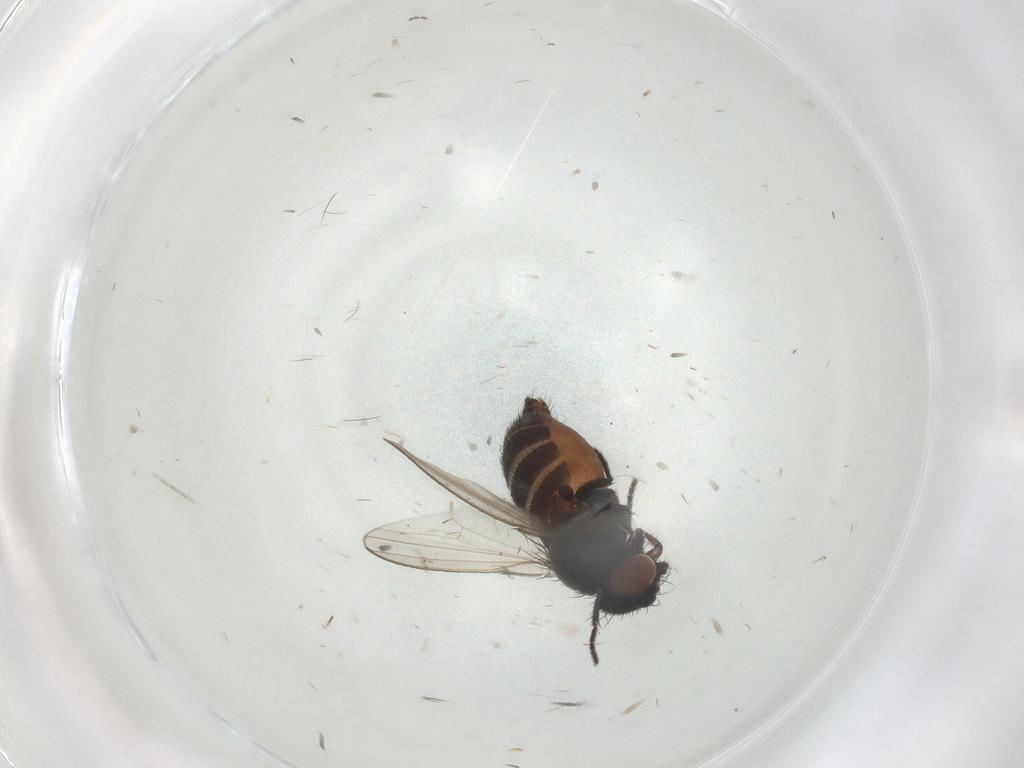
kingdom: Animalia
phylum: Arthropoda
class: Insecta
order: Diptera
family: Milichiidae
